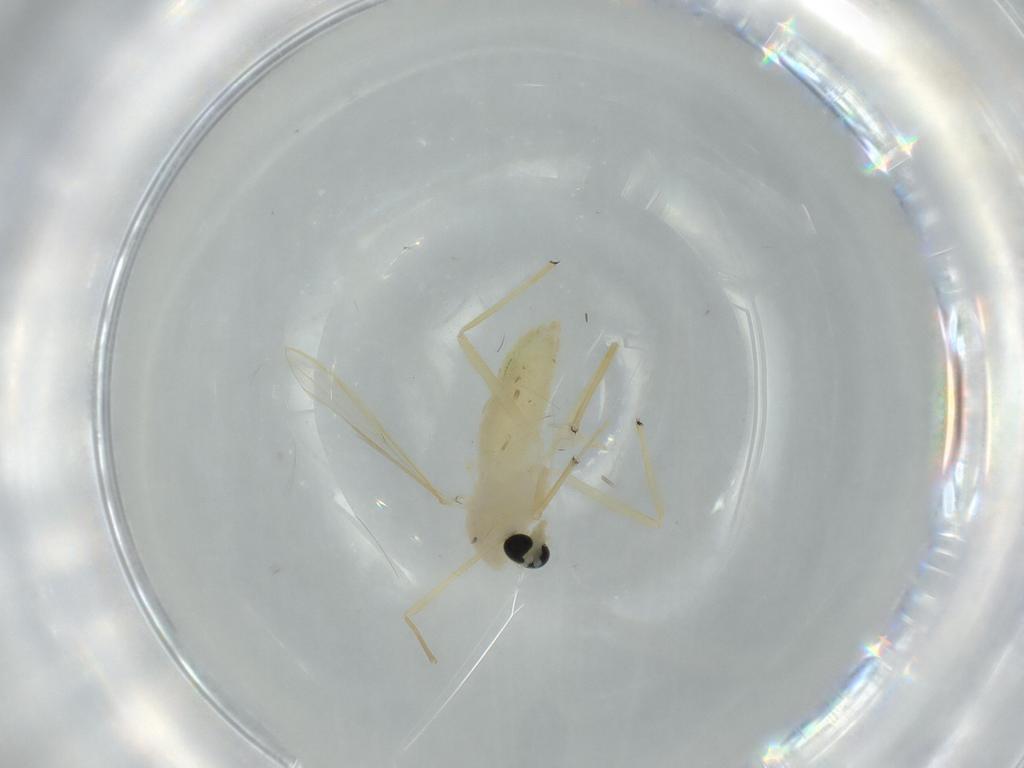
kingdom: Animalia
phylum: Arthropoda
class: Insecta
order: Diptera
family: Chironomidae
